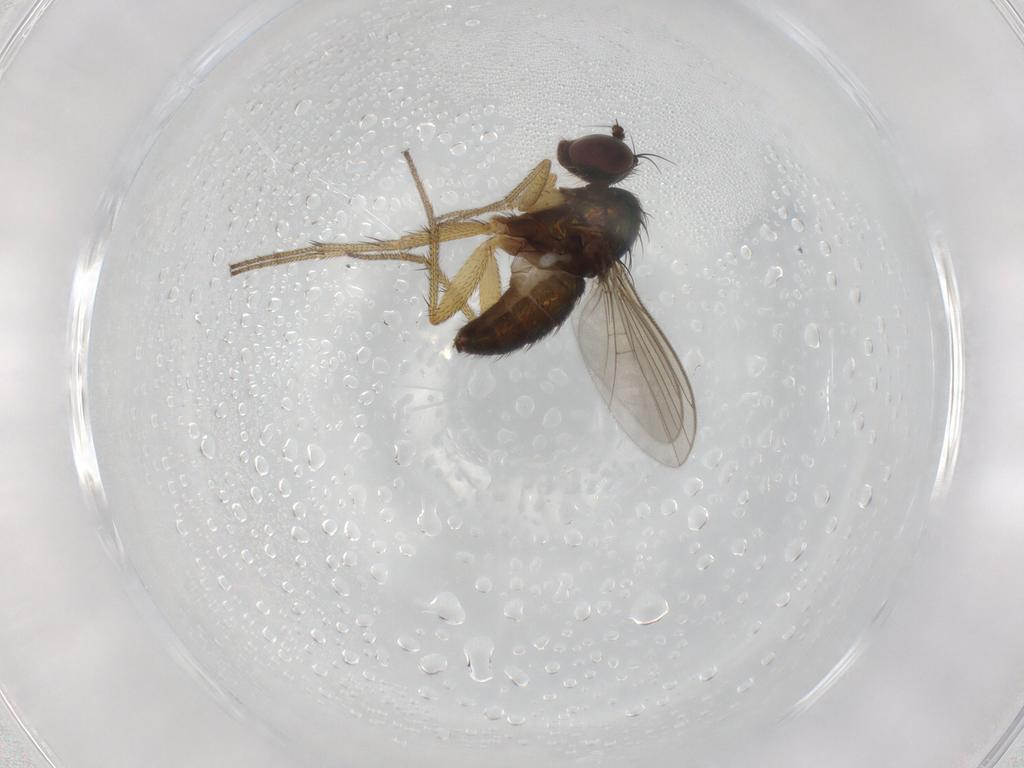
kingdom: Animalia
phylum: Arthropoda
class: Insecta
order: Diptera
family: Dolichopodidae
